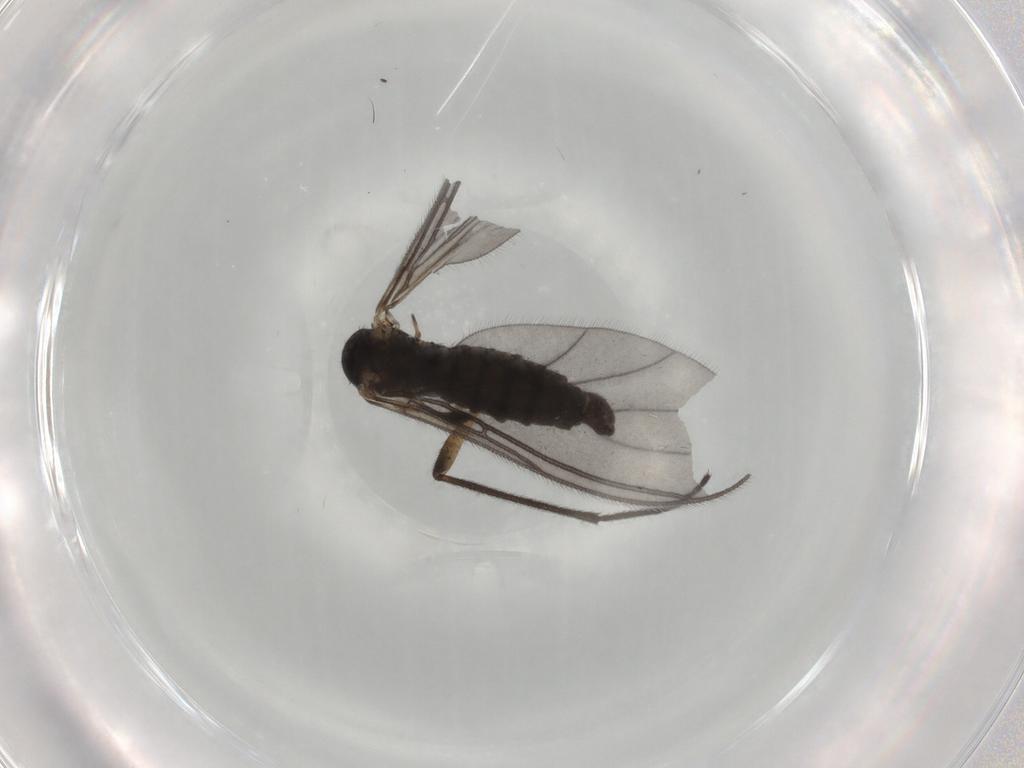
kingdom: Animalia
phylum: Arthropoda
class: Insecta
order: Diptera
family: Sciaridae
